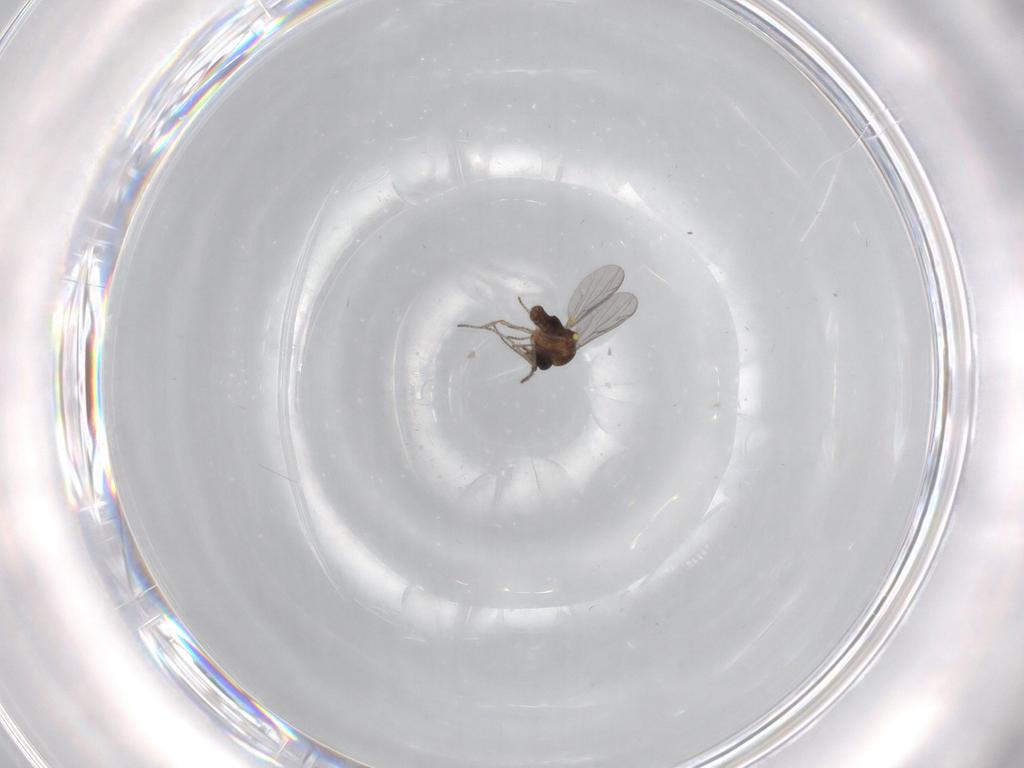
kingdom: Animalia
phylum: Arthropoda
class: Insecta
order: Diptera
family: Ceratopogonidae
